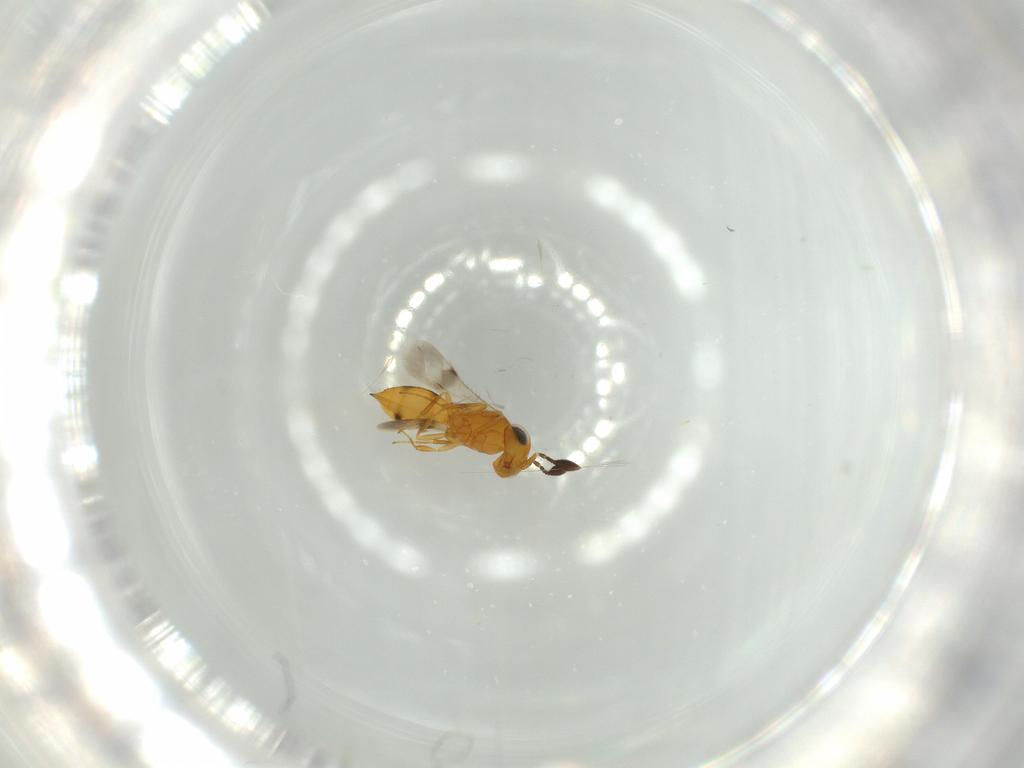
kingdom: Animalia
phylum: Arthropoda
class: Insecta
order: Hymenoptera
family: Scelionidae
